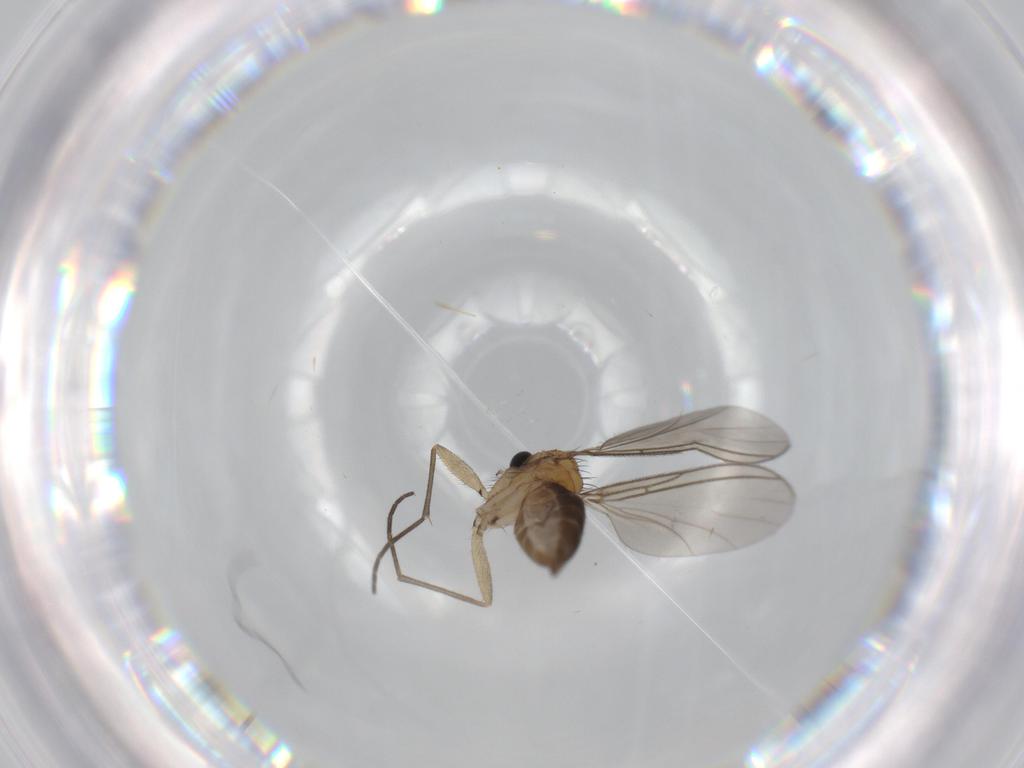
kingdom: Animalia
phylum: Arthropoda
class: Insecta
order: Diptera
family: Sciaridae
